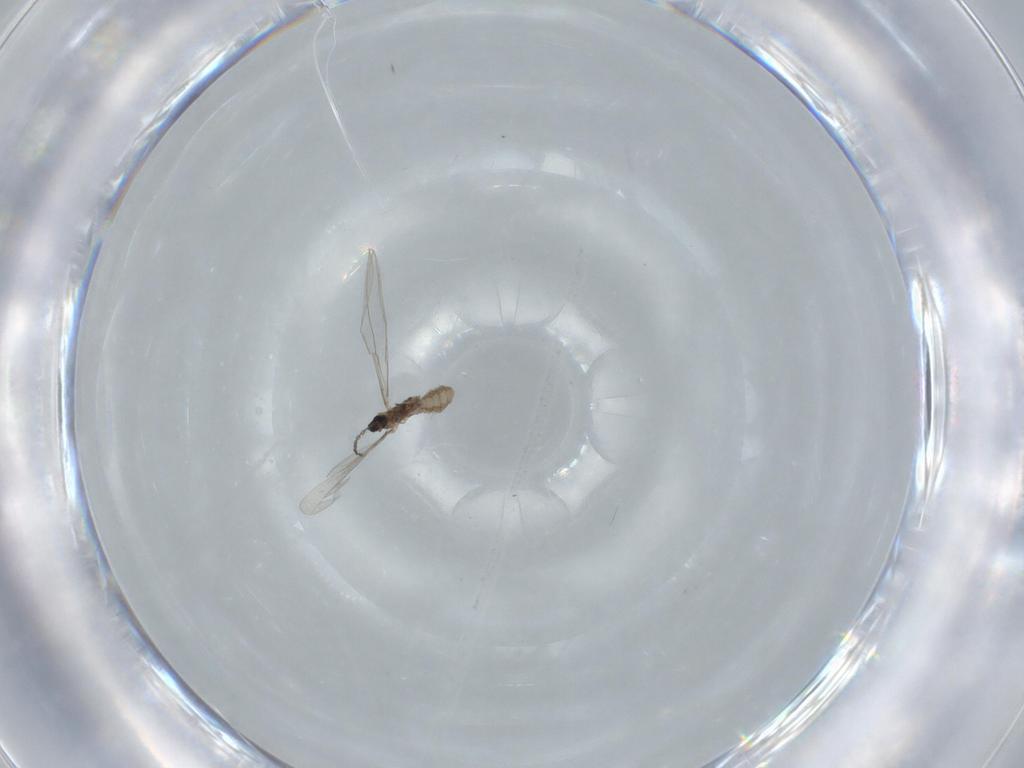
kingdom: Animalia
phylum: Arthropoda
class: Insecta
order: Diptera
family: Cecidomyiidae
